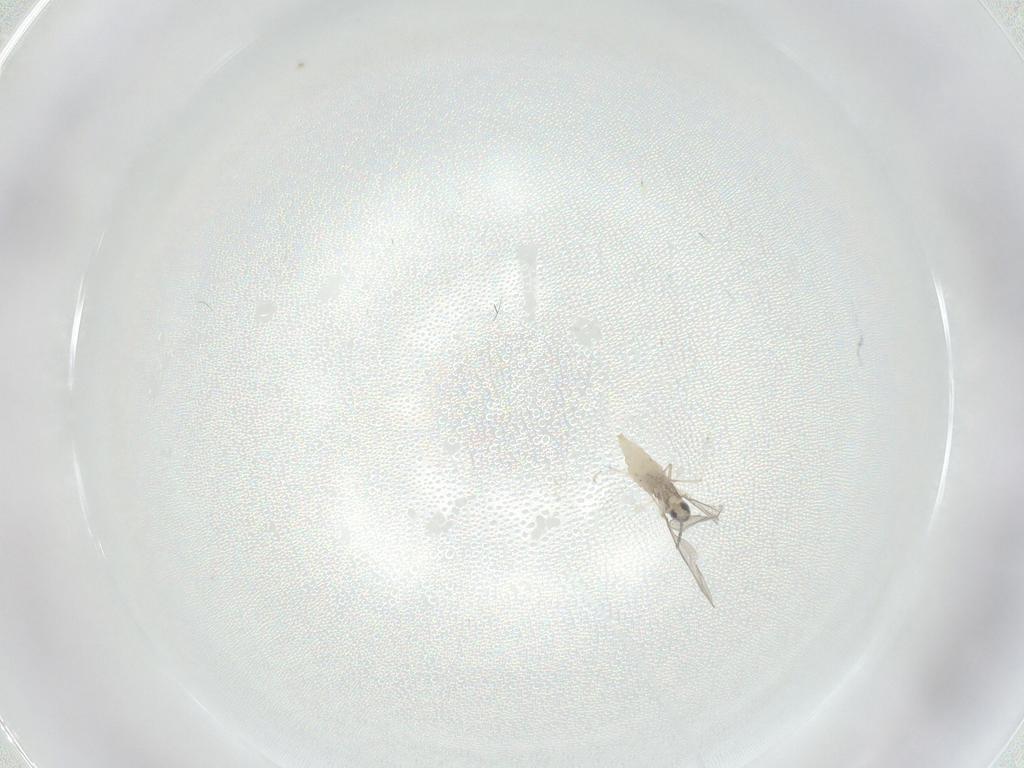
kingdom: Animalia
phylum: Arthropoda
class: Insecta
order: Diptera
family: Cecidomyiidae
